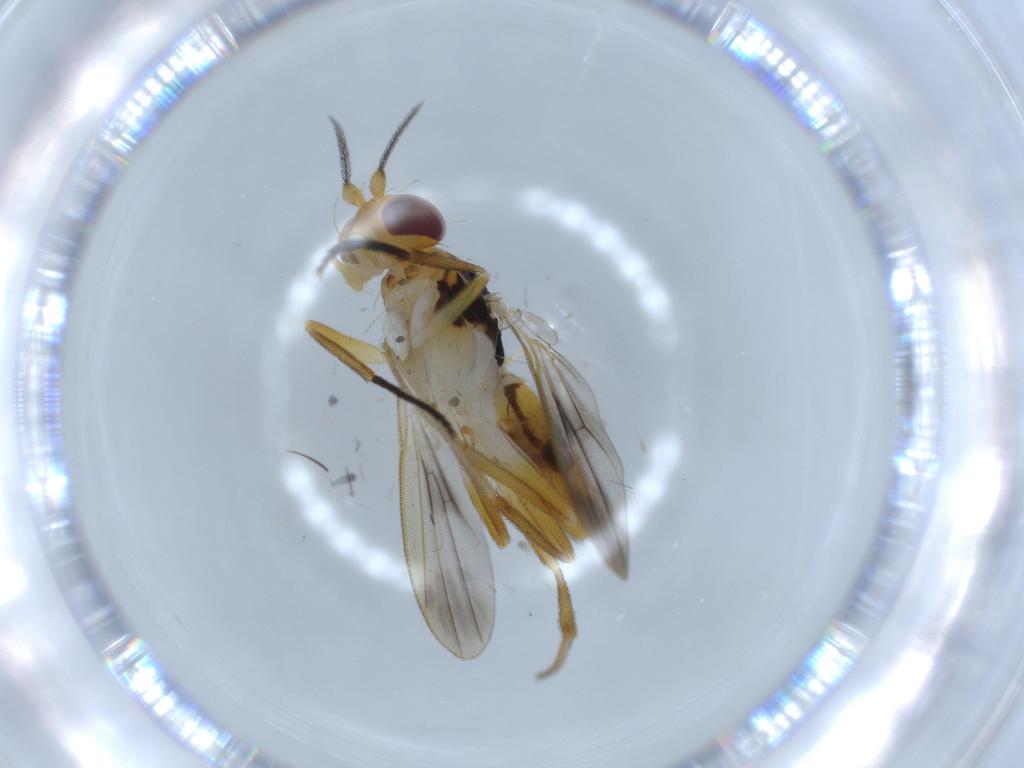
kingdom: Animalia
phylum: Arthropoda
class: Insecta
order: Diptera
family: Clusiidae
